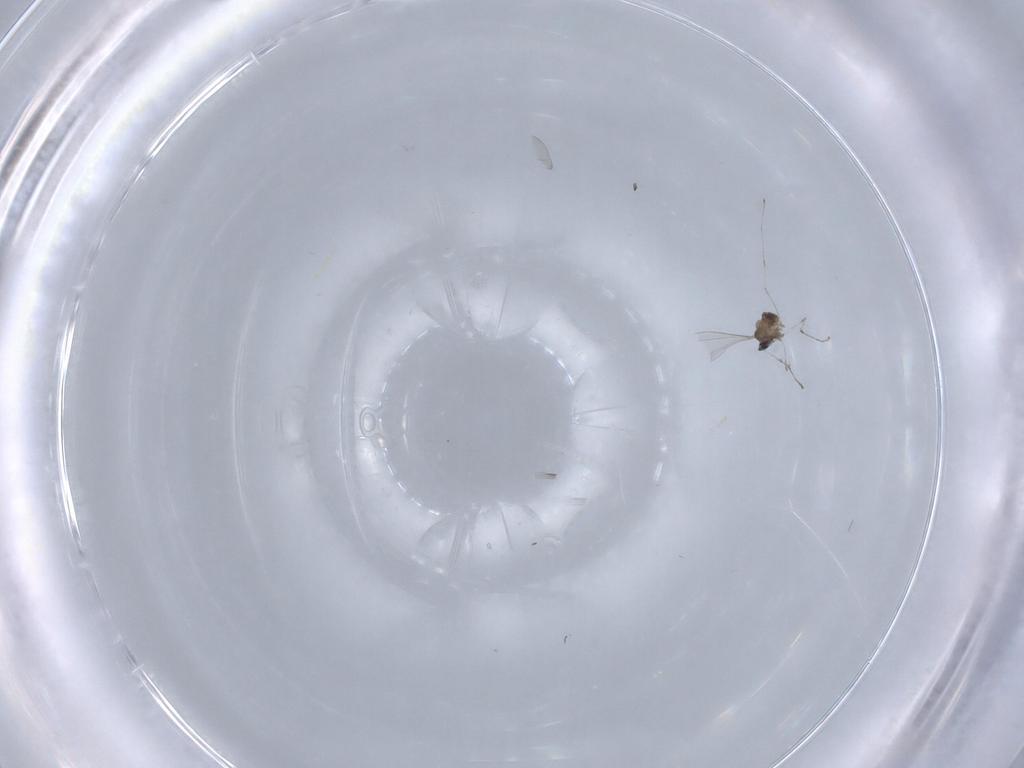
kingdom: Animalia
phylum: Arthropoda
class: Insecta
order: Diptera
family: Cecidomyiidae
